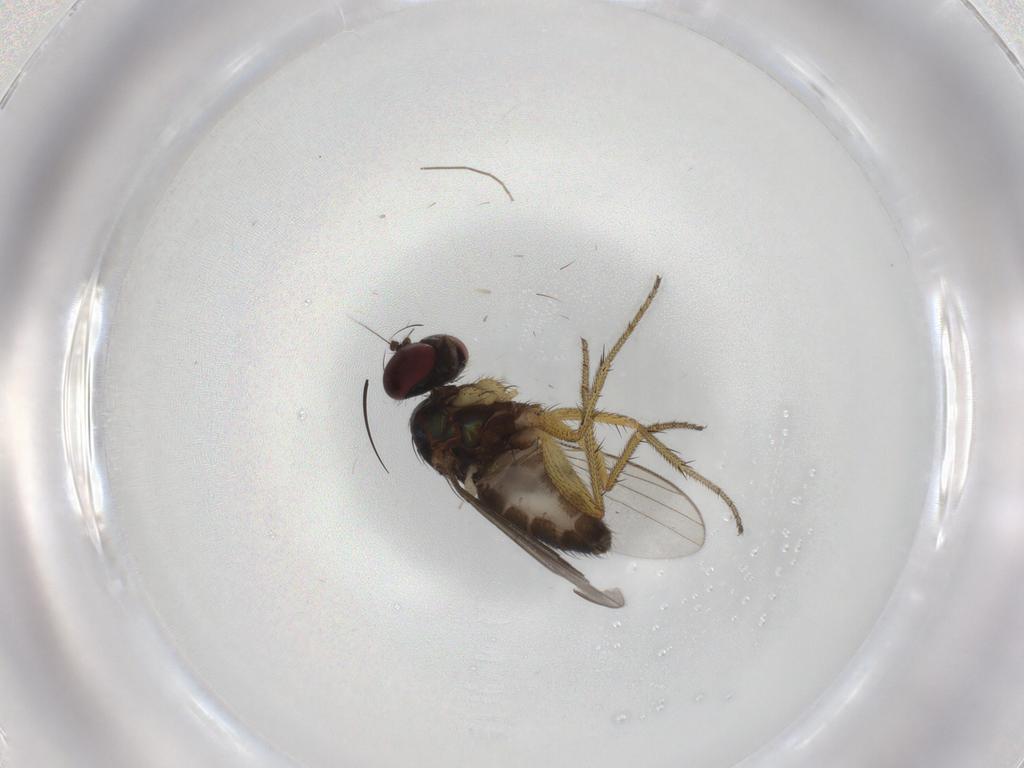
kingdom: Animalia
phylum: Arthropoda
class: Insecta
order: Diptera
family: Dolichopodidae
